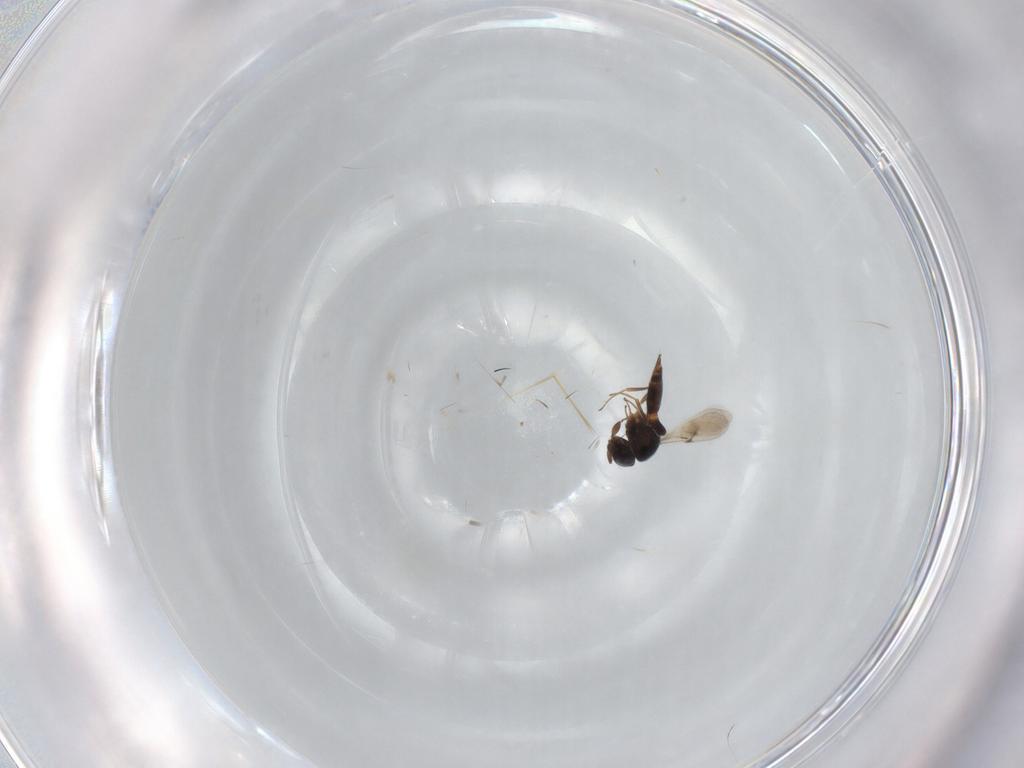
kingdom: Animalia
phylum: Arthropoda
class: Insecta
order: Hymenoptera
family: Scelionidae
